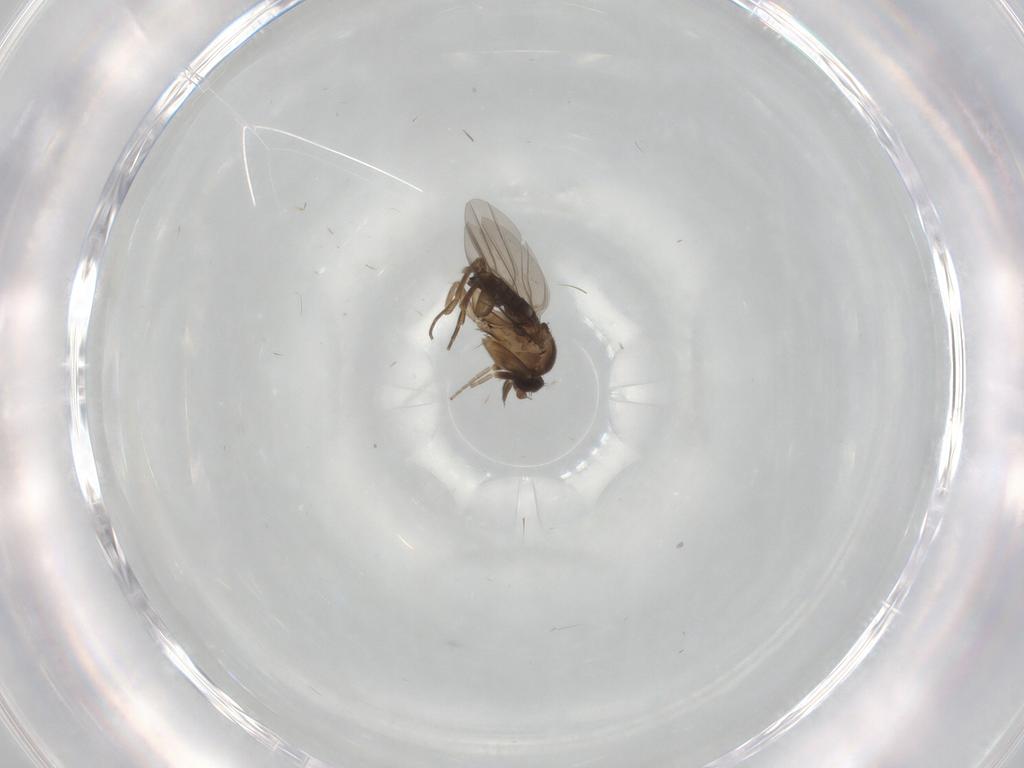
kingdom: Animalia
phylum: Arthropoda
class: Insecta
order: Diptera
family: Phoridae
